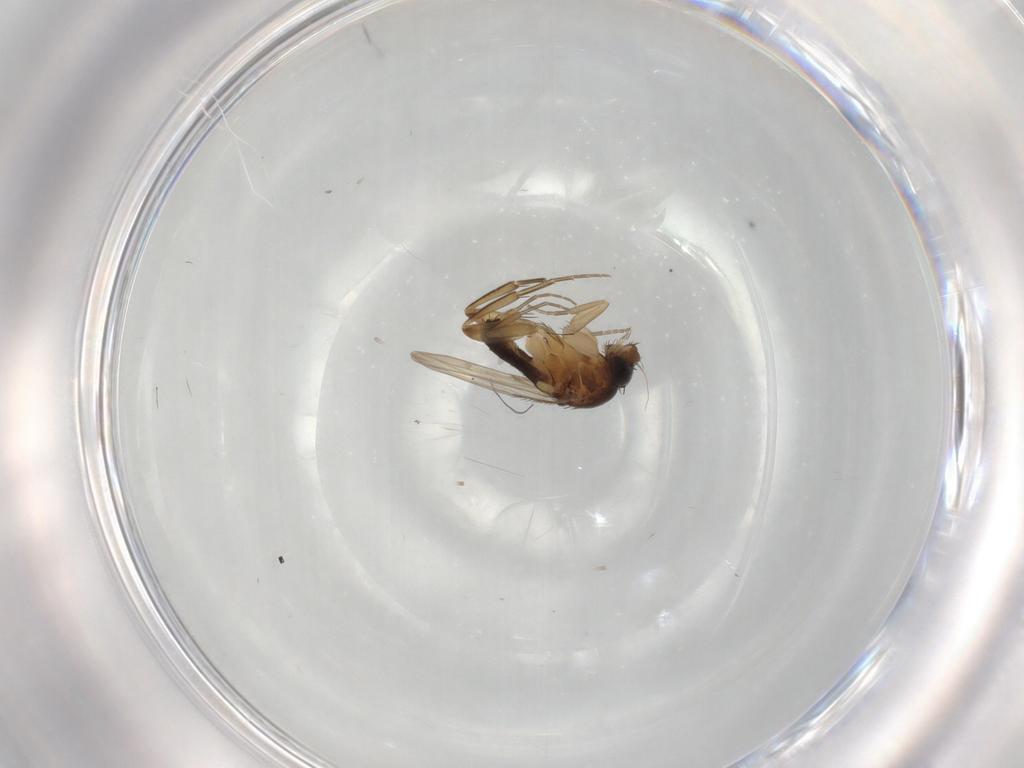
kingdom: Animalia
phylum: Arthropoda
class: Insecta
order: Diptera
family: Phoridae
